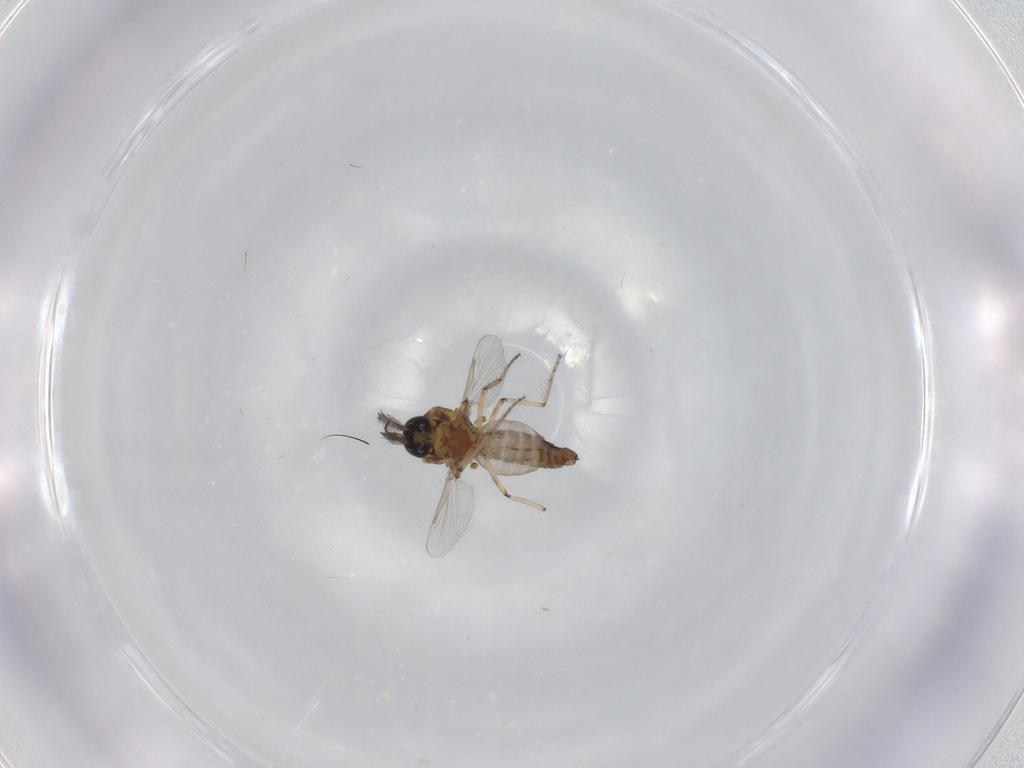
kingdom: Animalia
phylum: Arthropoda
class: Insecta
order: Diptera
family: Ceratopogonidae
